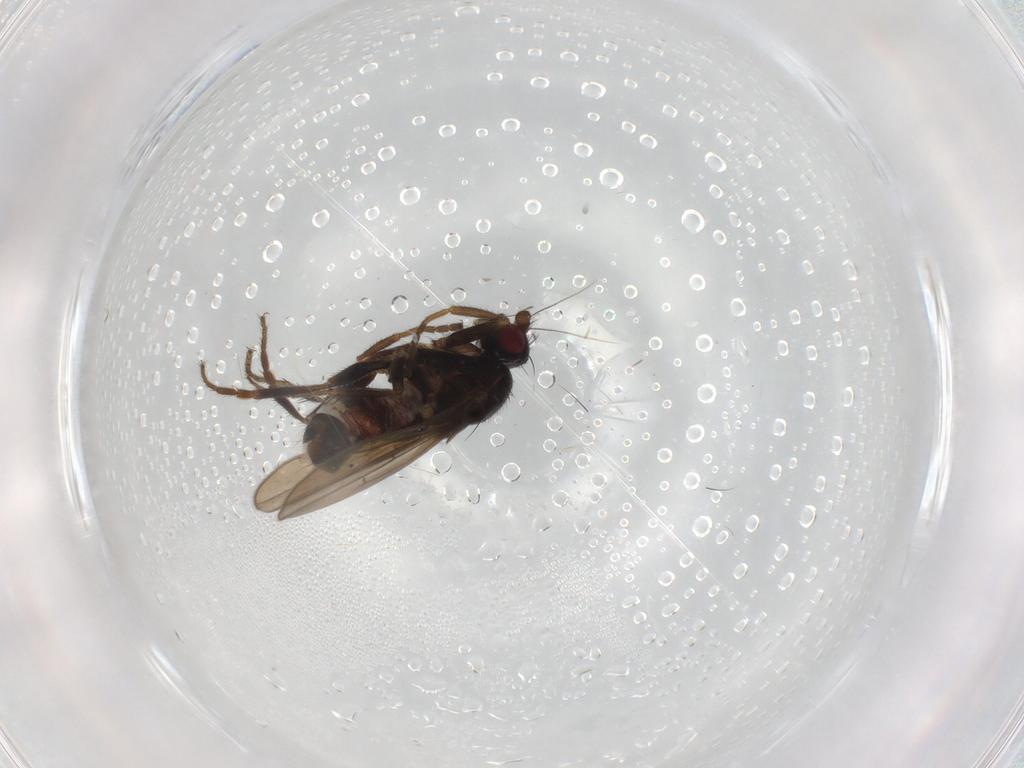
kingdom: Animalia
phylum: Arthropoda
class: Insecta
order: Diptera
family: Sphaeroceridae
